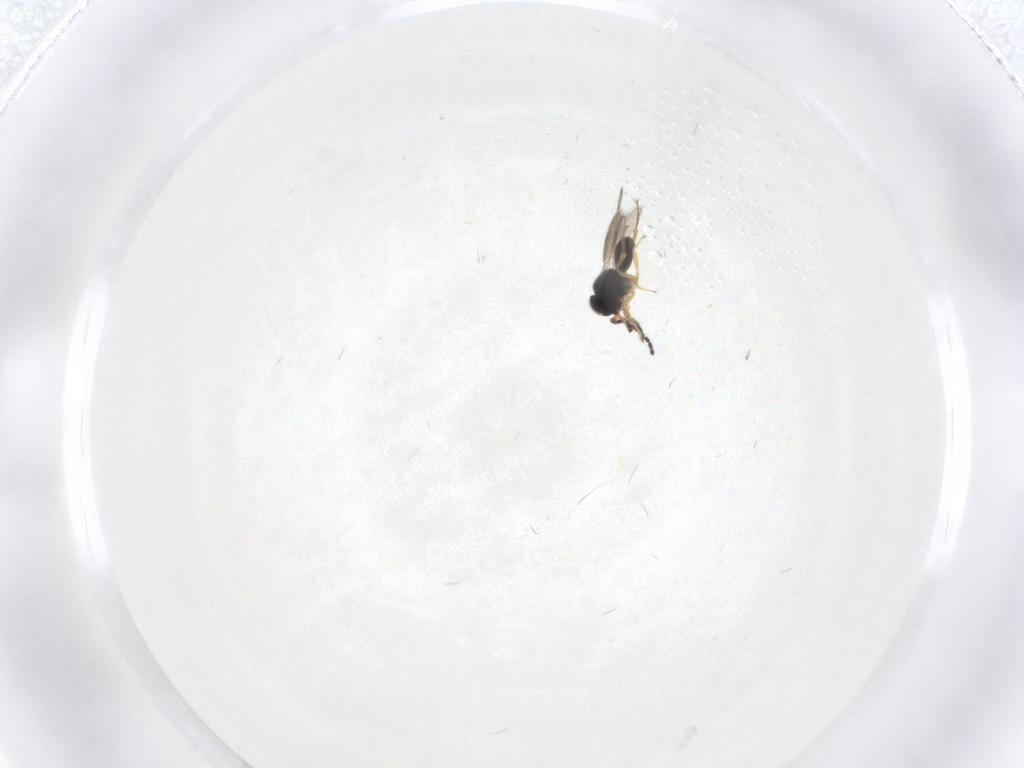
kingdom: Animalia
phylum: Arthropoda
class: Insecta
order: Hymenoptera
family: Scelionidae
